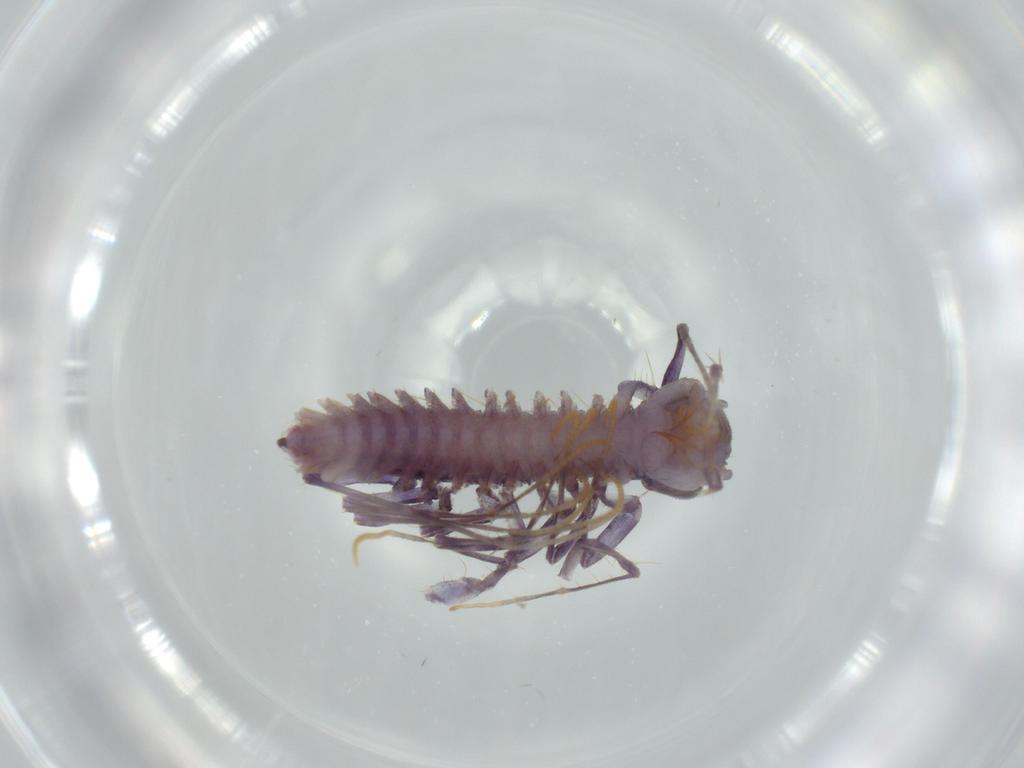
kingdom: Animalia
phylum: Arthropoda
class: Chilopoda
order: Scutigeromorpha
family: Scutigeridae
